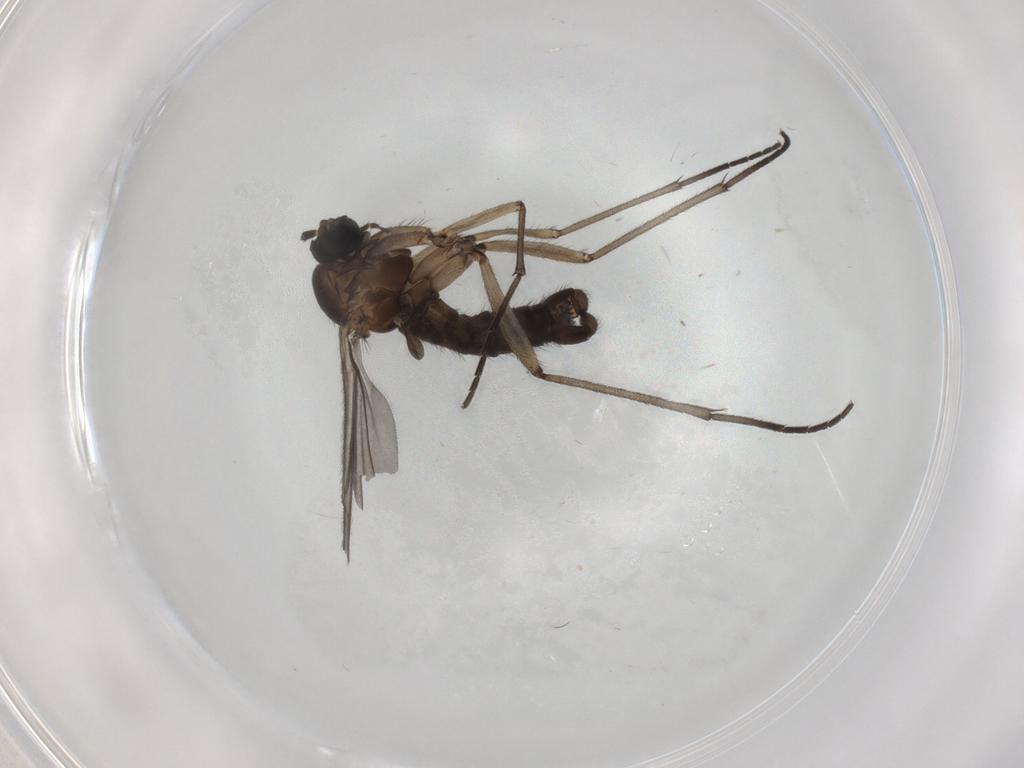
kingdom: Animalia
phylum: Arthropoda
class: Insecta
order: Diptera
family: Sciaridae
